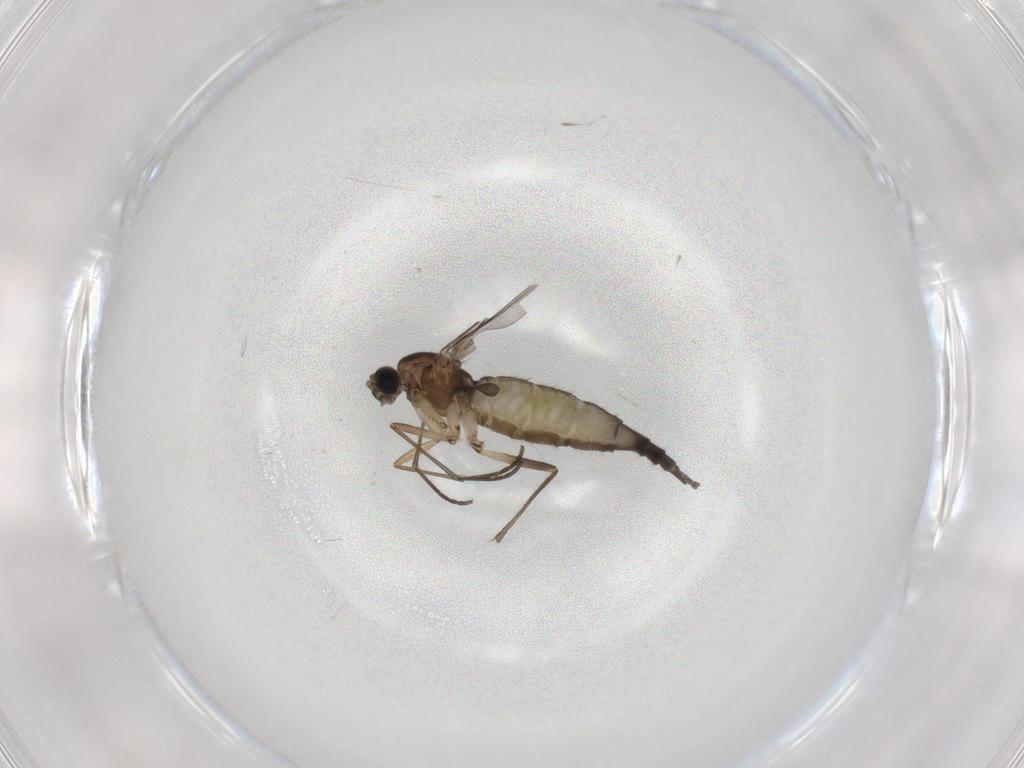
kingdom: Animalia
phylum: Arthropoda
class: Insecta
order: Diptera
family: Sciaridae
